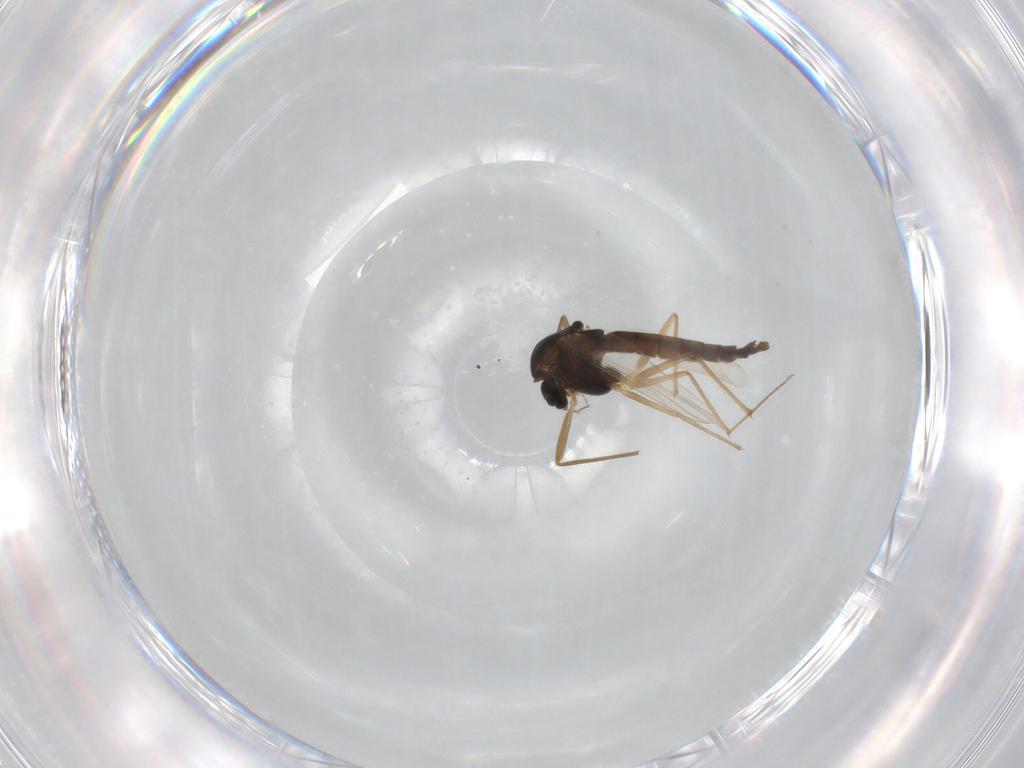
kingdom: Animalia
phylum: Arthropoda
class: Insecta
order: Diptera
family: Chironomidae
